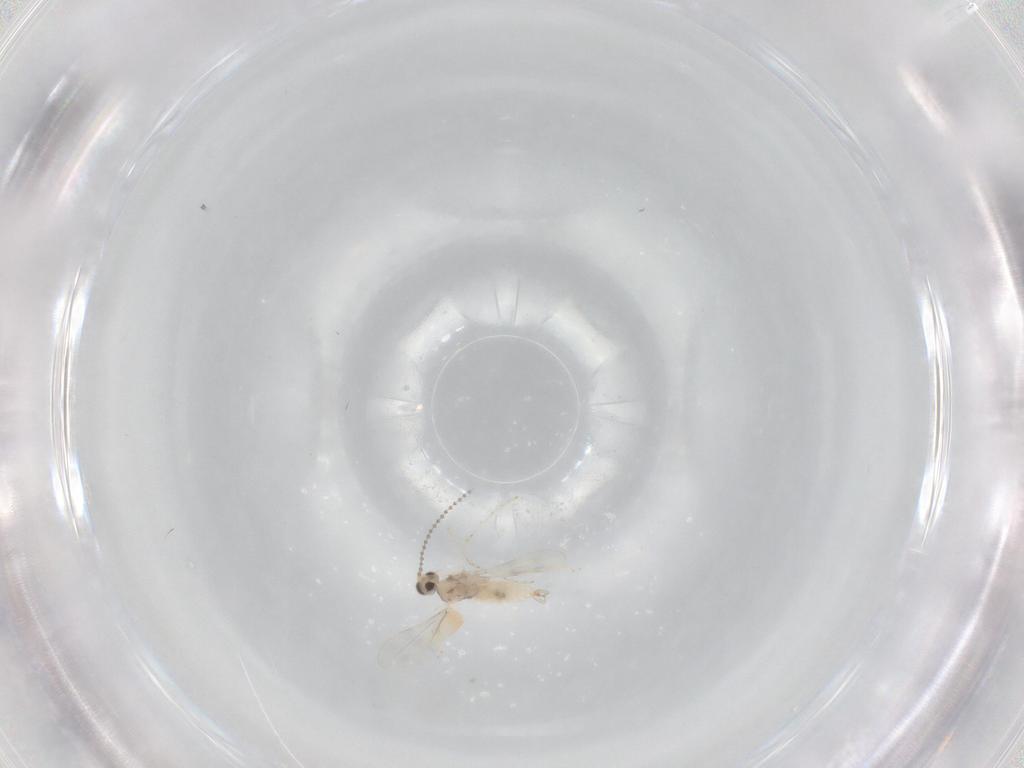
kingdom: Animalia
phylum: Arthropoda
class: Insecta
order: Diptera
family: Cecidomyiidae
